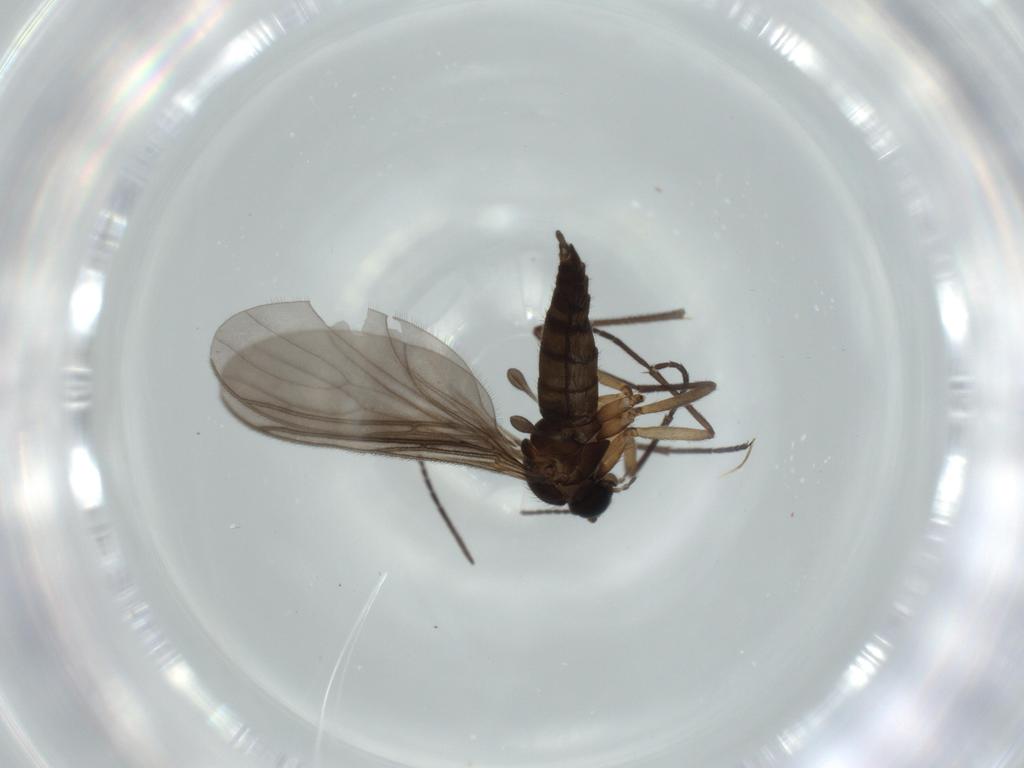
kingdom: Animalia
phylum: Arthropoda
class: Insecta
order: Diptera
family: Sciaridae
